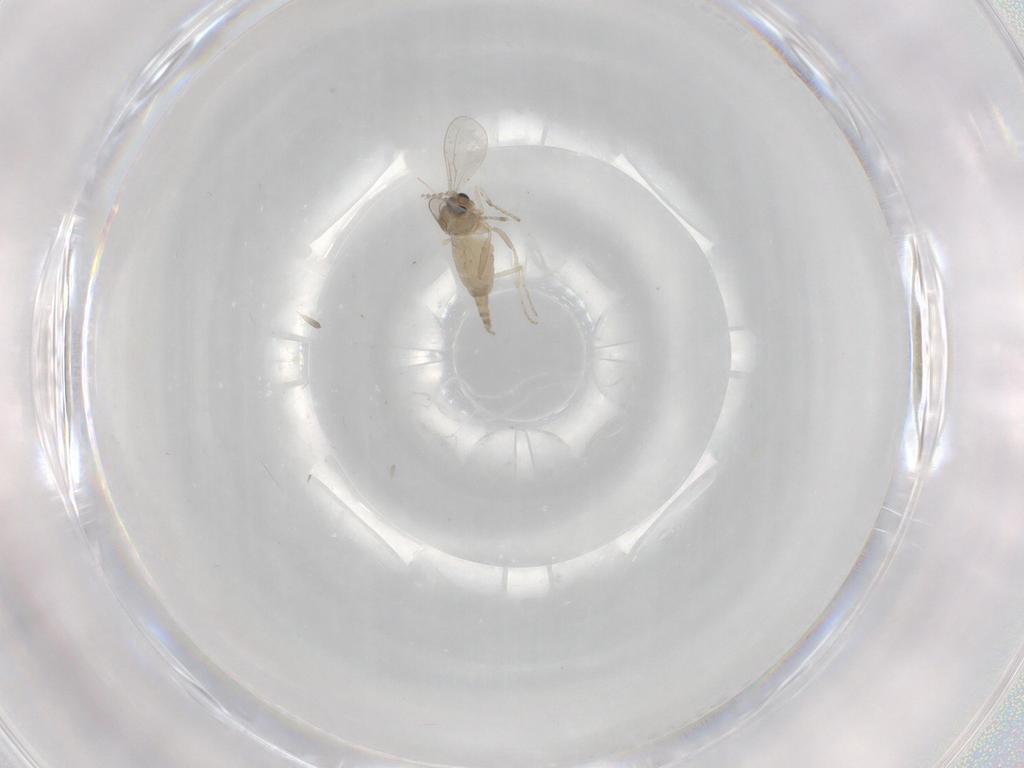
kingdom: Animalia
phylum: Arthropoda
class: Insecta
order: Diptera
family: Cecidomyiidae
